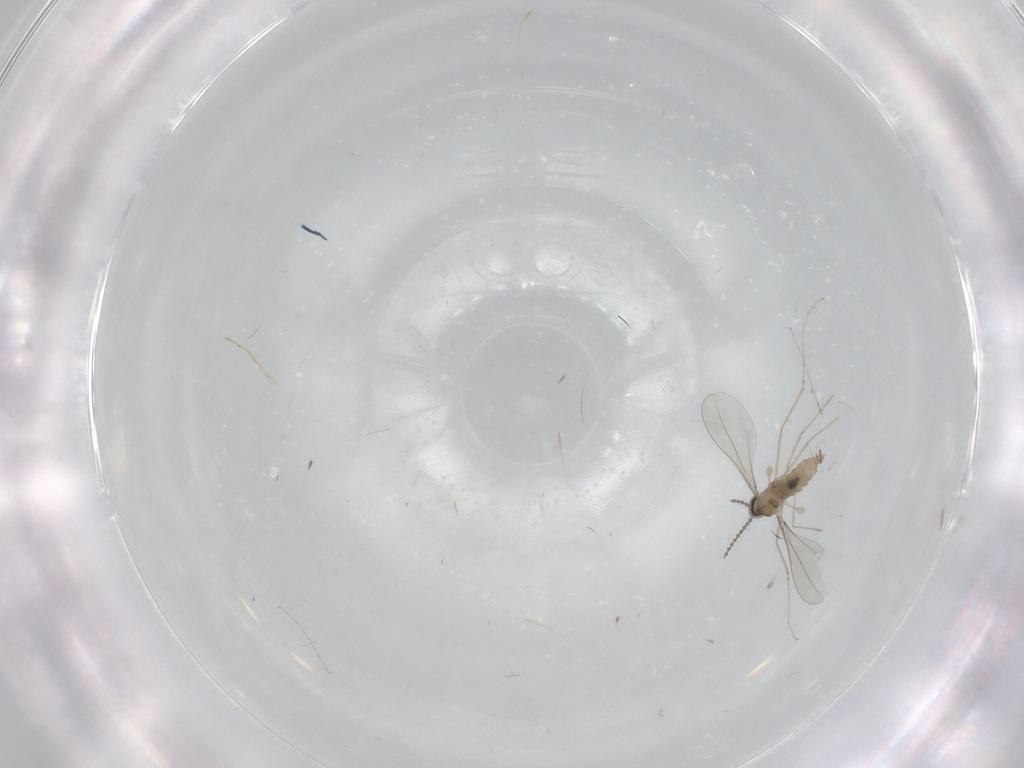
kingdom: Animalia
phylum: Arthropoda
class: Insecta
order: Diptera
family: Cecidomyiidae
